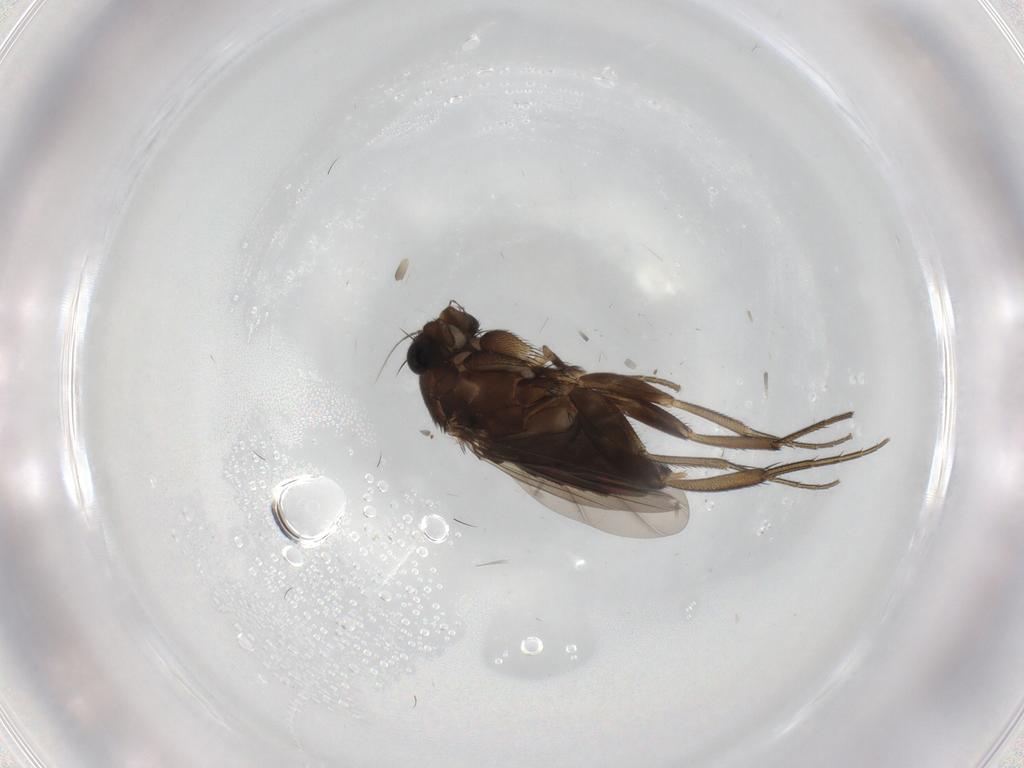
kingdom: Animalia
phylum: Arthropoda
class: Insecta
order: Diptera
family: Phoridae
